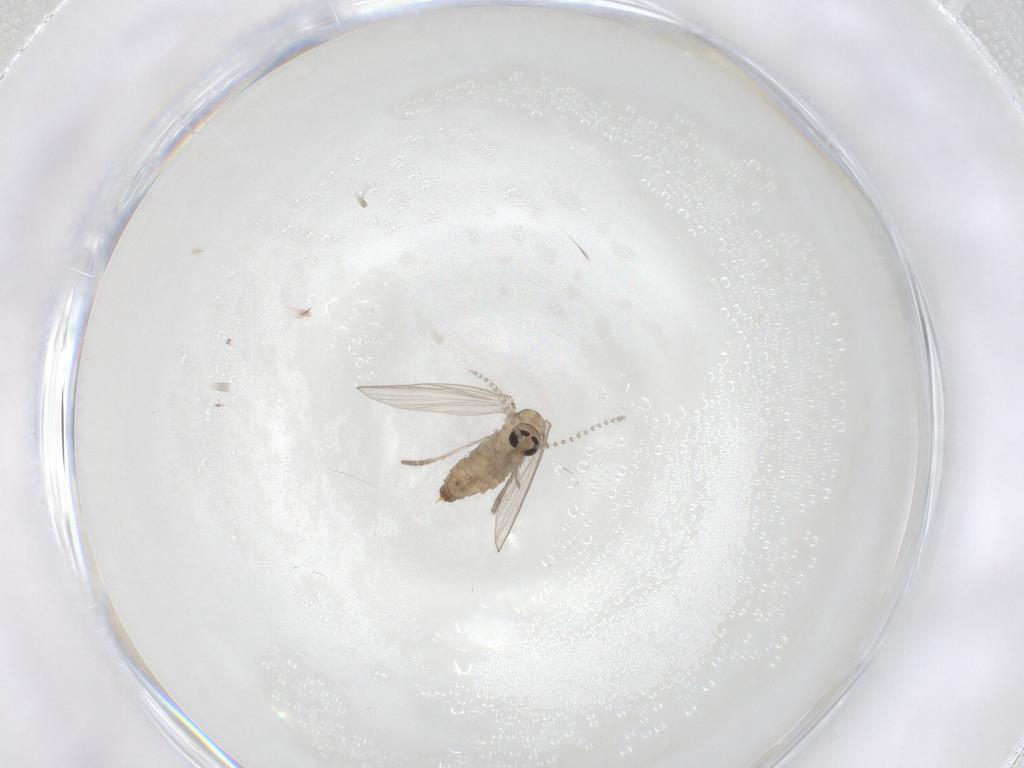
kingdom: Animalia
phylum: Arthropoda
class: Insecta
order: Diptera
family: Psychodidae
